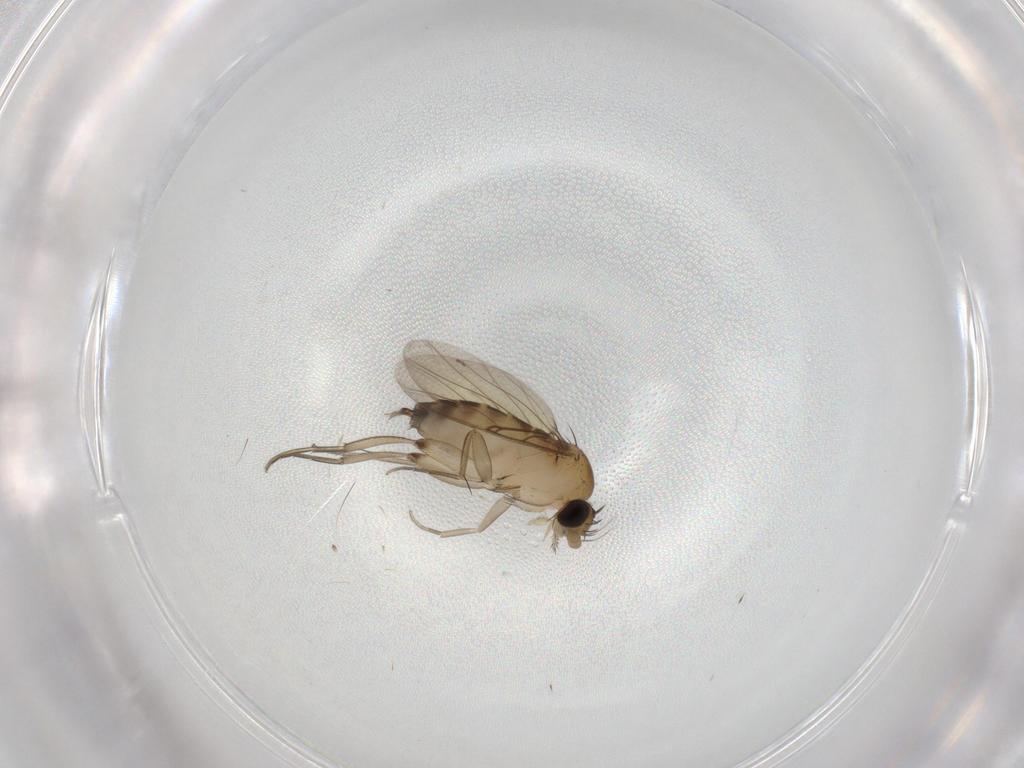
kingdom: Animalia
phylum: Arthropoda
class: Insecta
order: Diptera
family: Phoridae
